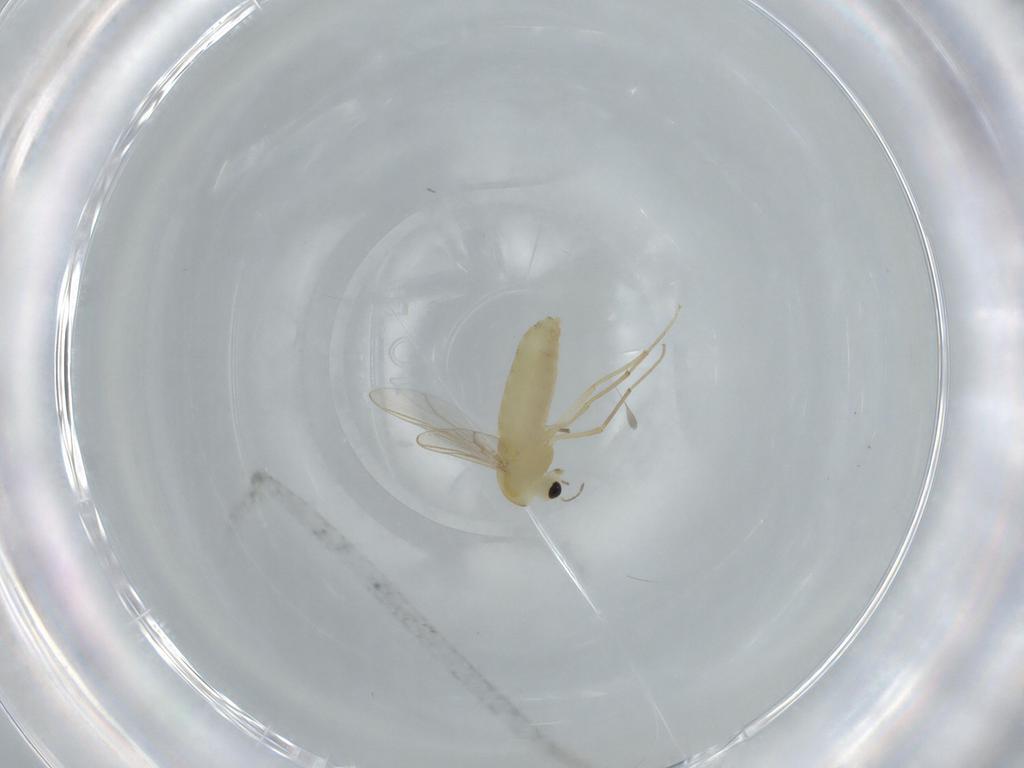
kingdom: Animalia
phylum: Arthropoda
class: Insecta
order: Diptera
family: Chironomidae
